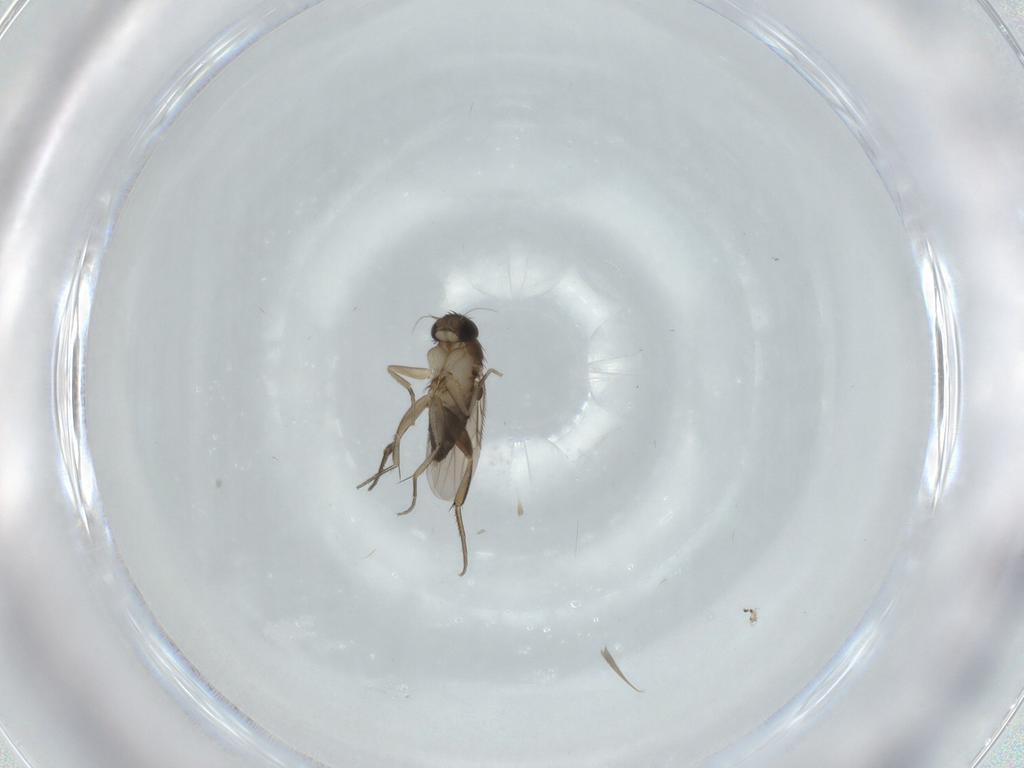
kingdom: Animalia
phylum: Arthropoda
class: Insecta
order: Diptera
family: Phoridae
